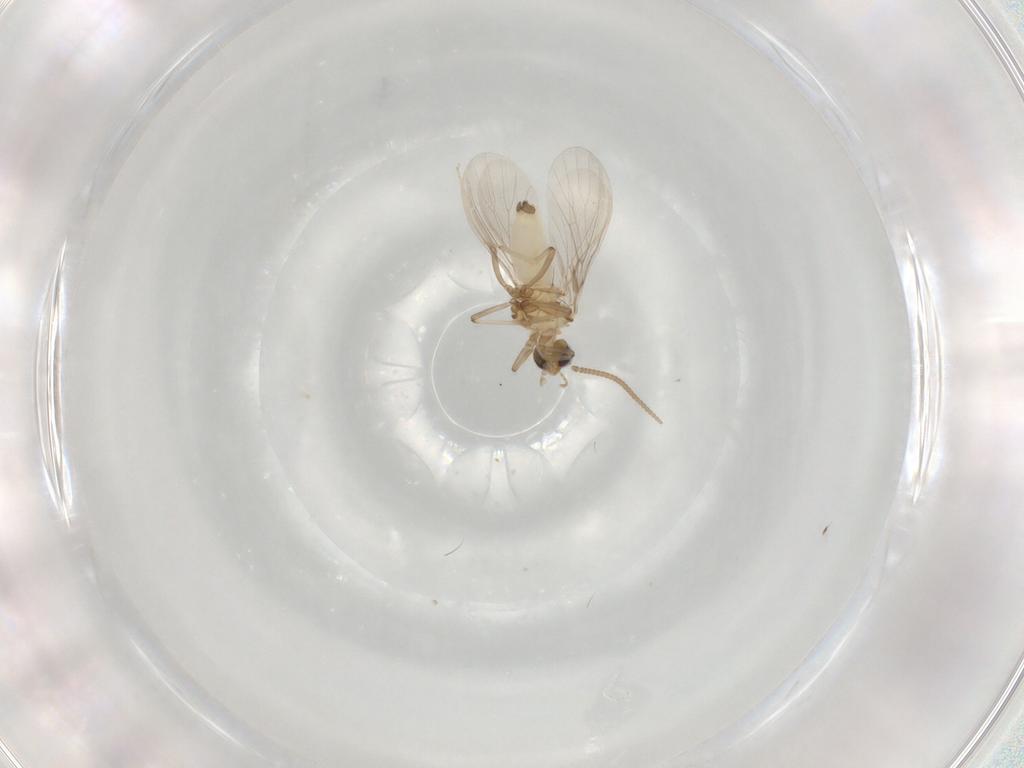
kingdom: Animalia
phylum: Arthropoda
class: Insecta
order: Neuroptera
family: Coniopterygidae
